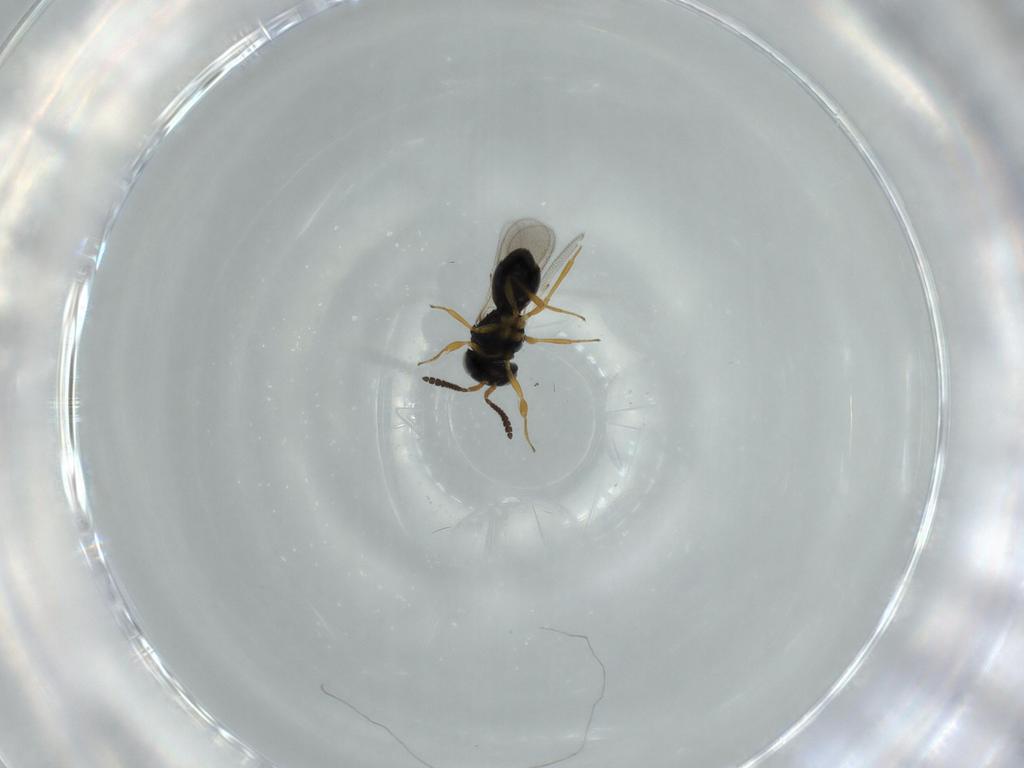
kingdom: Animalia
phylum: Arthropoda
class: Insecta
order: Hymenoptera
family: Scelionidae
